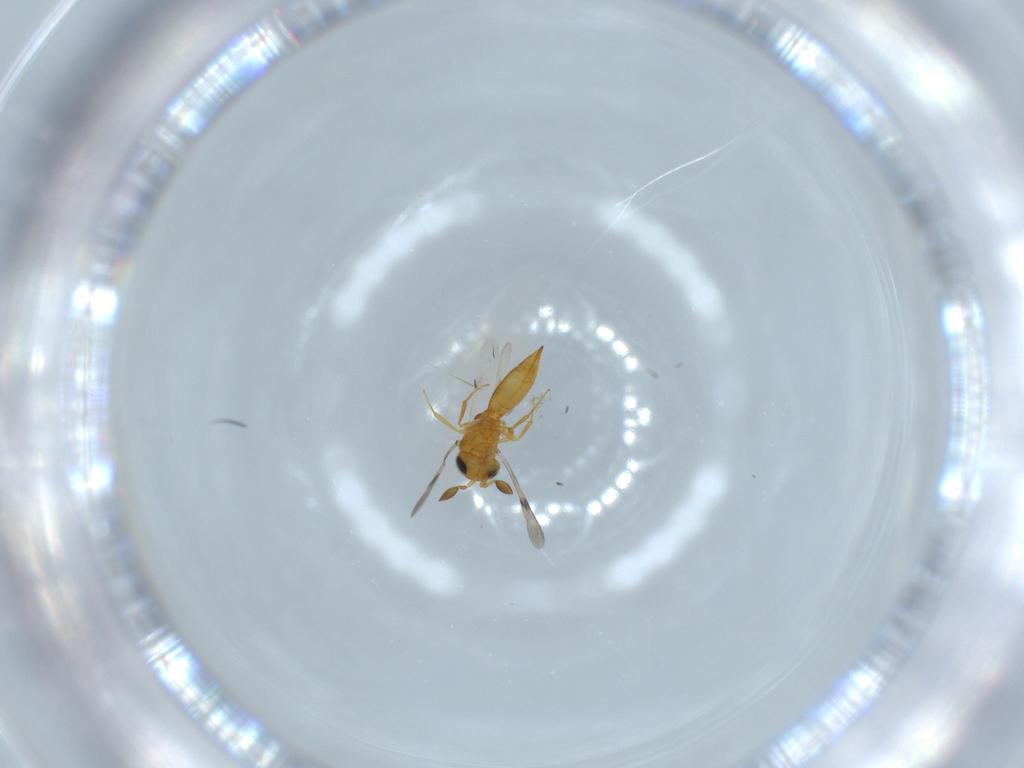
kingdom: Animalia
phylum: Arthropoda
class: Insecta
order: Hymenoptera
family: Scelionidae
